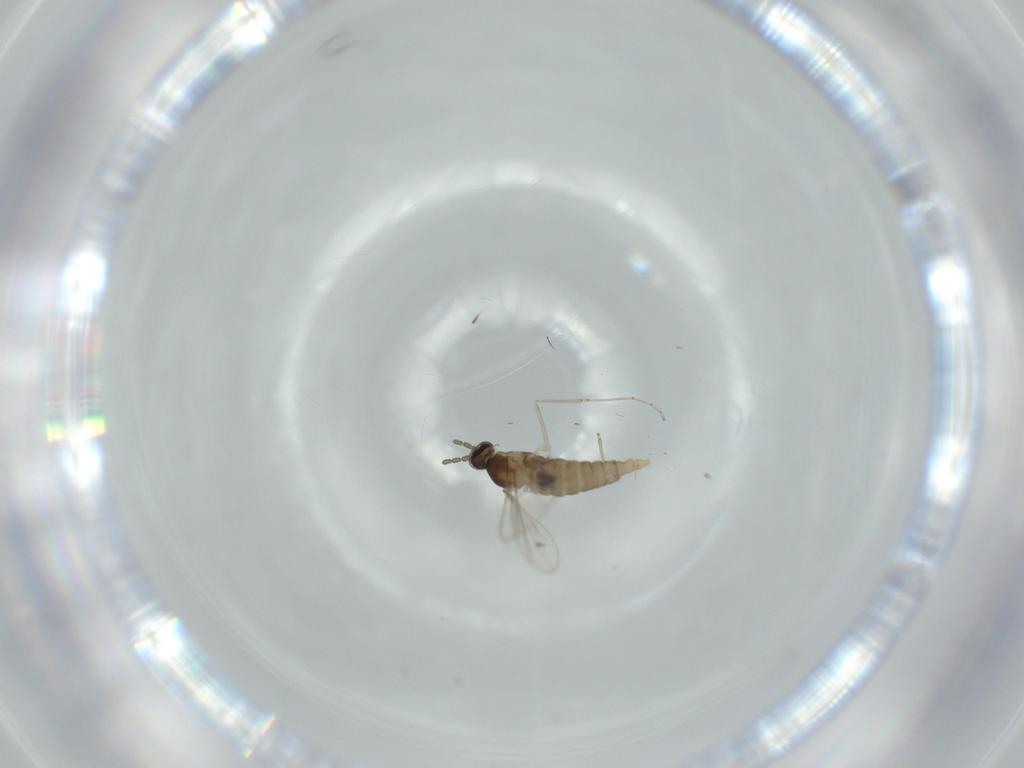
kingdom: Animalia
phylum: Arthropoda
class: Insecta
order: Diptera
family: Cecidomyiidae
